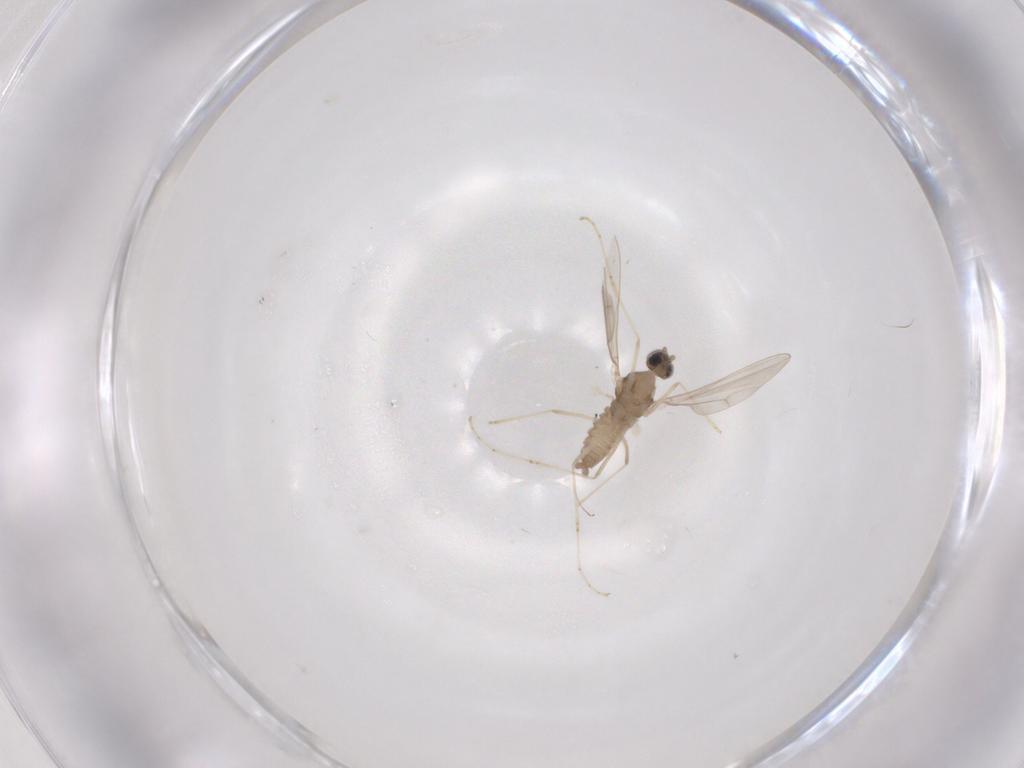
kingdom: Animalia
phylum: Arthropoda
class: Insecta
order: Diptera
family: Cecidomyiidae
